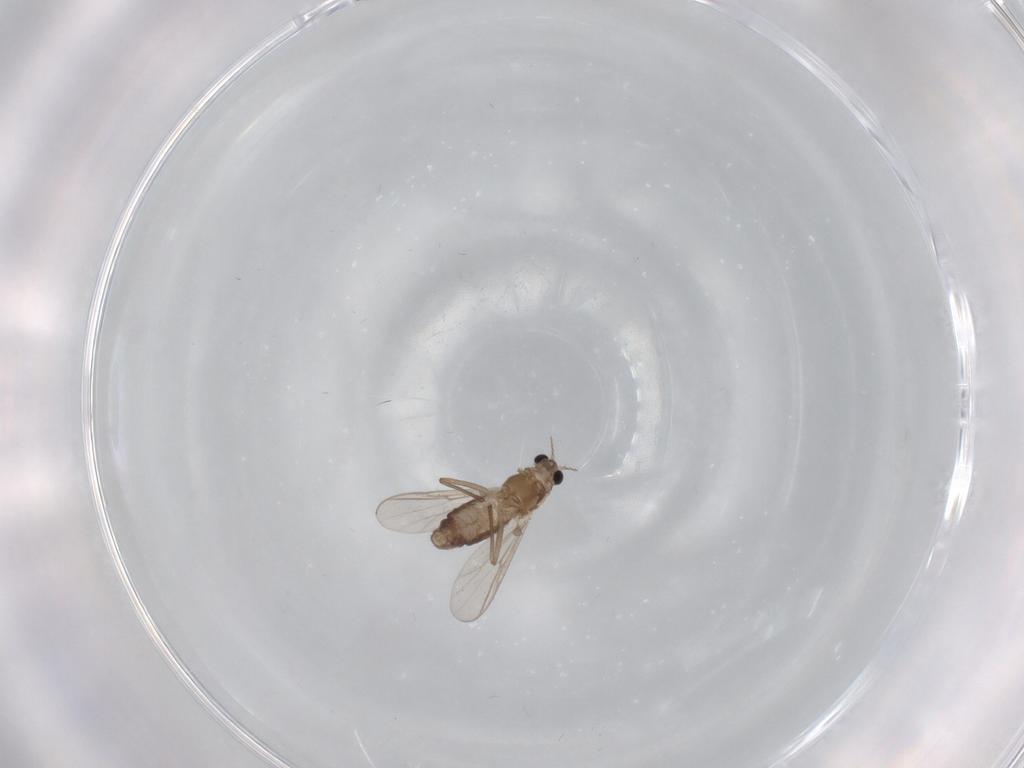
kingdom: Animalia
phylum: Arthropoda
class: Insecta
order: Diptera
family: Chironomidae
